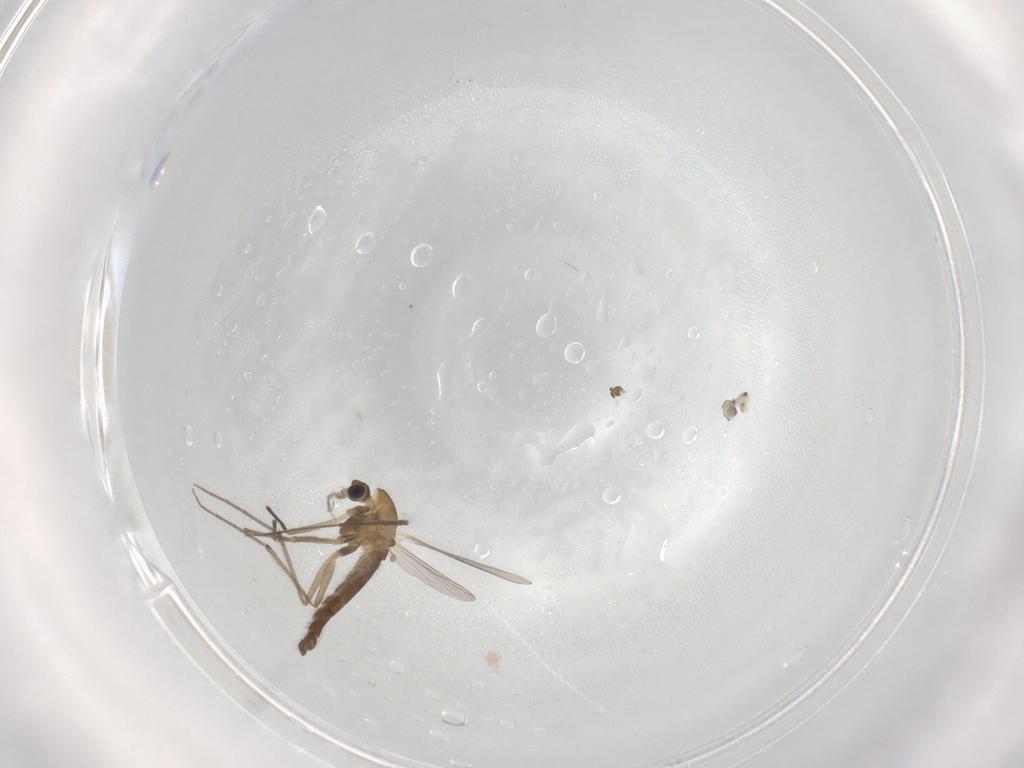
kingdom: Animalia
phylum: Arthropoda
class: Insecta
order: Diptera
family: Chironomidae
